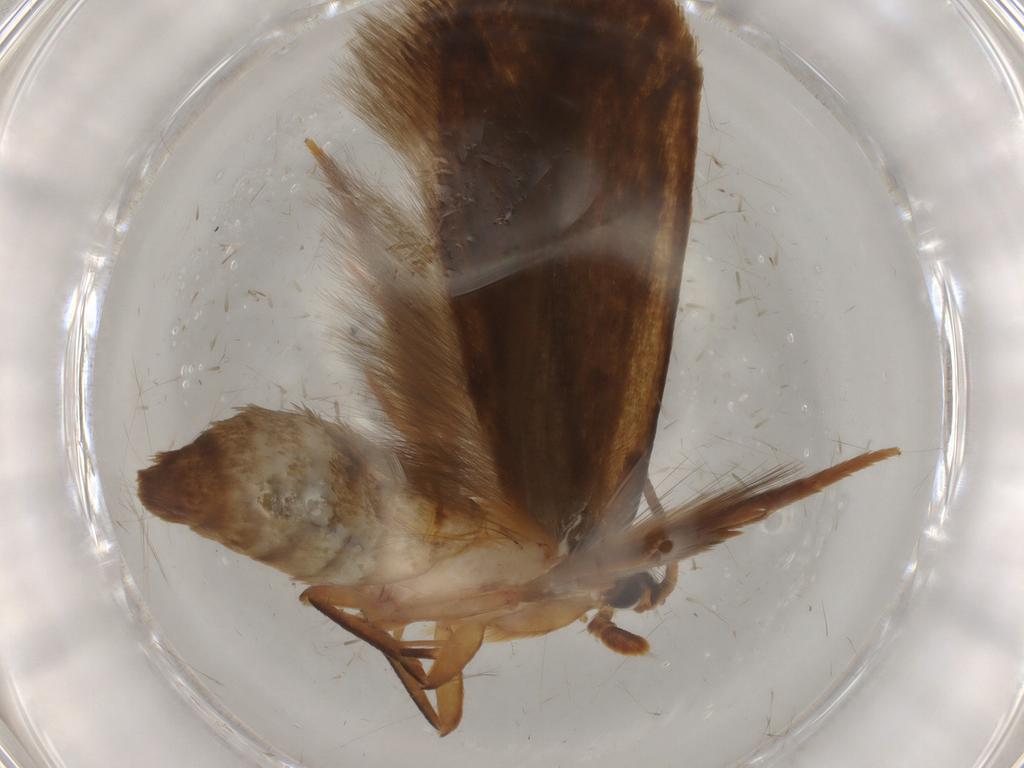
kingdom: Animalia
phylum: Arthropoda
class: Insecta
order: Lepidoptera
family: Tineidae
